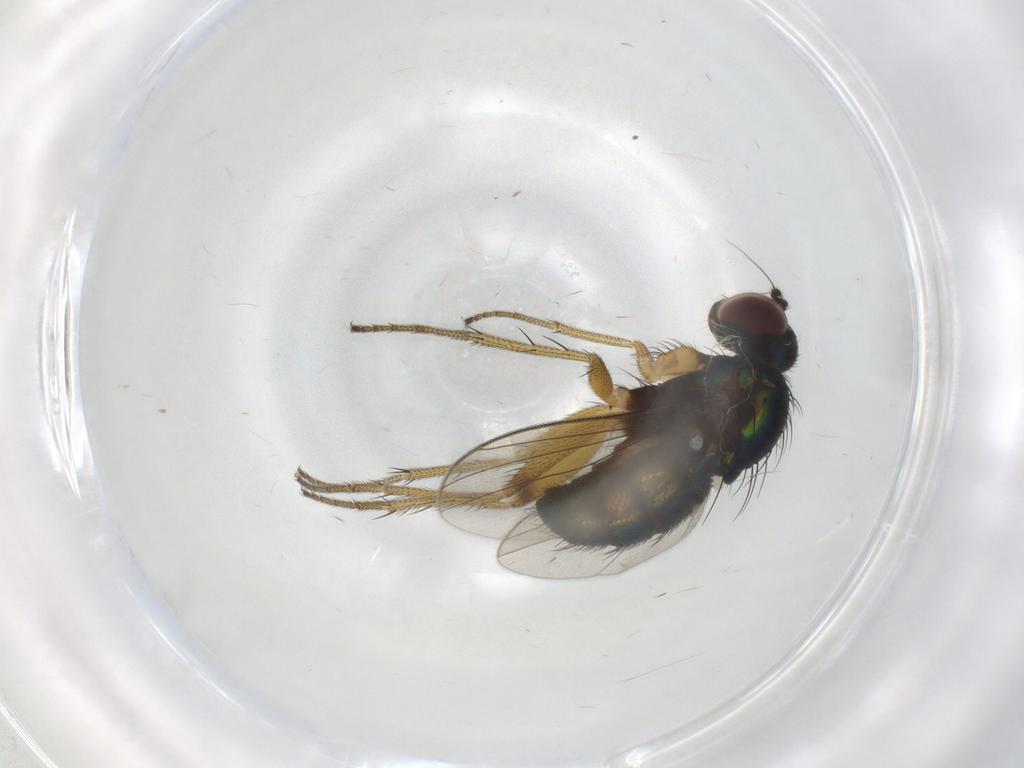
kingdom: Animalia
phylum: Arthropoda
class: Insecta
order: Diptera
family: Dolichopodidae
